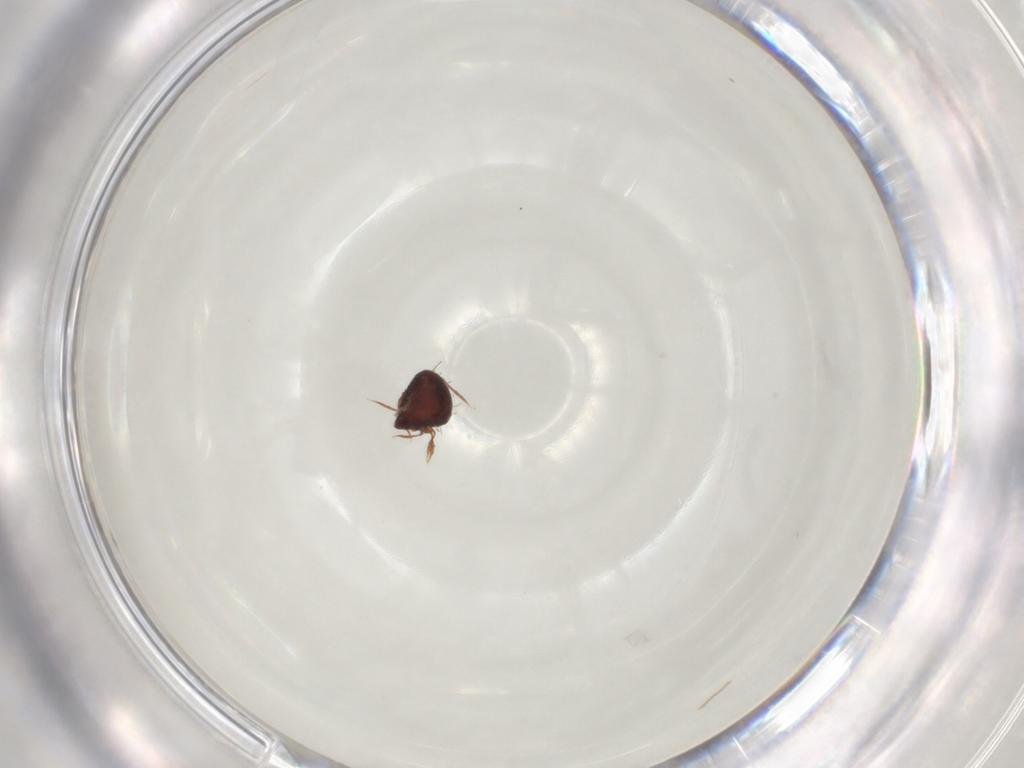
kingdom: Animalia
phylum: Arthropoda
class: Arachnida
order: Sarcoptiformes
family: Caloppiidae
